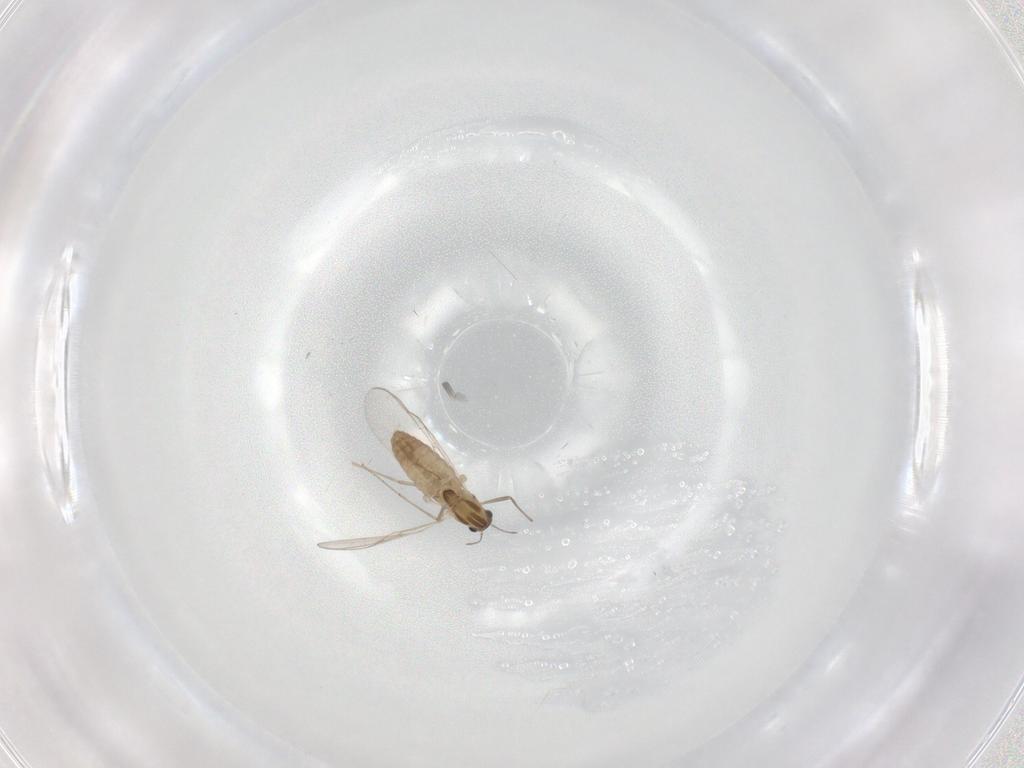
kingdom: Animalia
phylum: Arthropoda
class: Insecta
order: Diptera
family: Chironomidae
